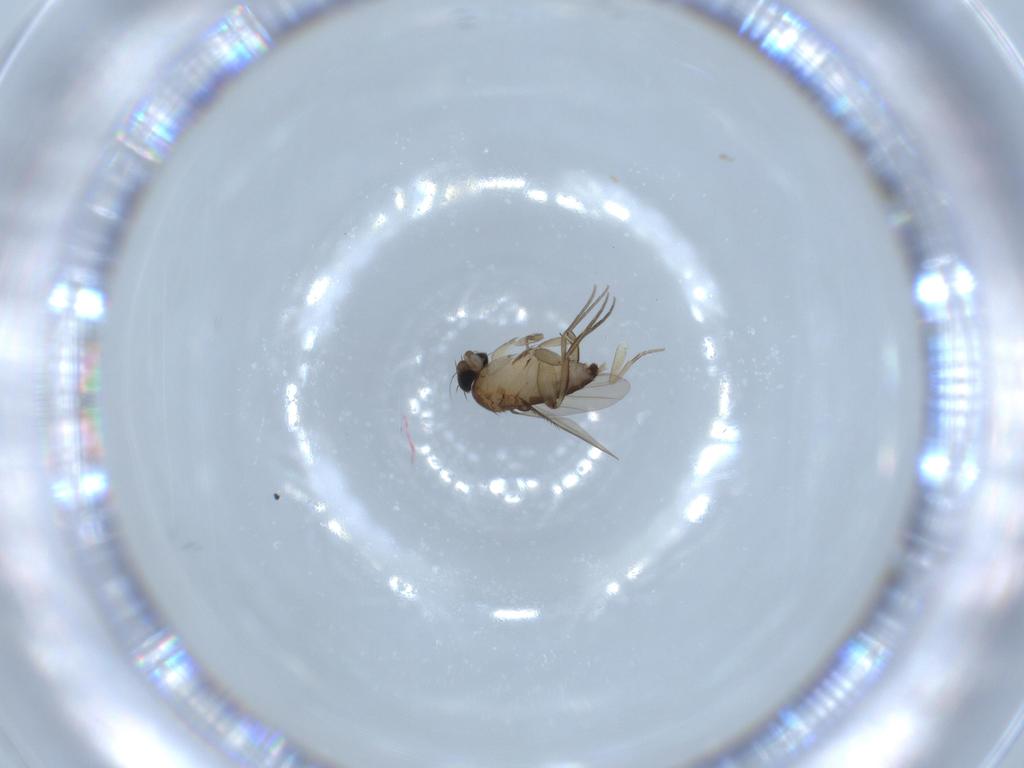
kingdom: Animalia
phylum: Arthropoda
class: Insecta
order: Diptera
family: Phoridae
